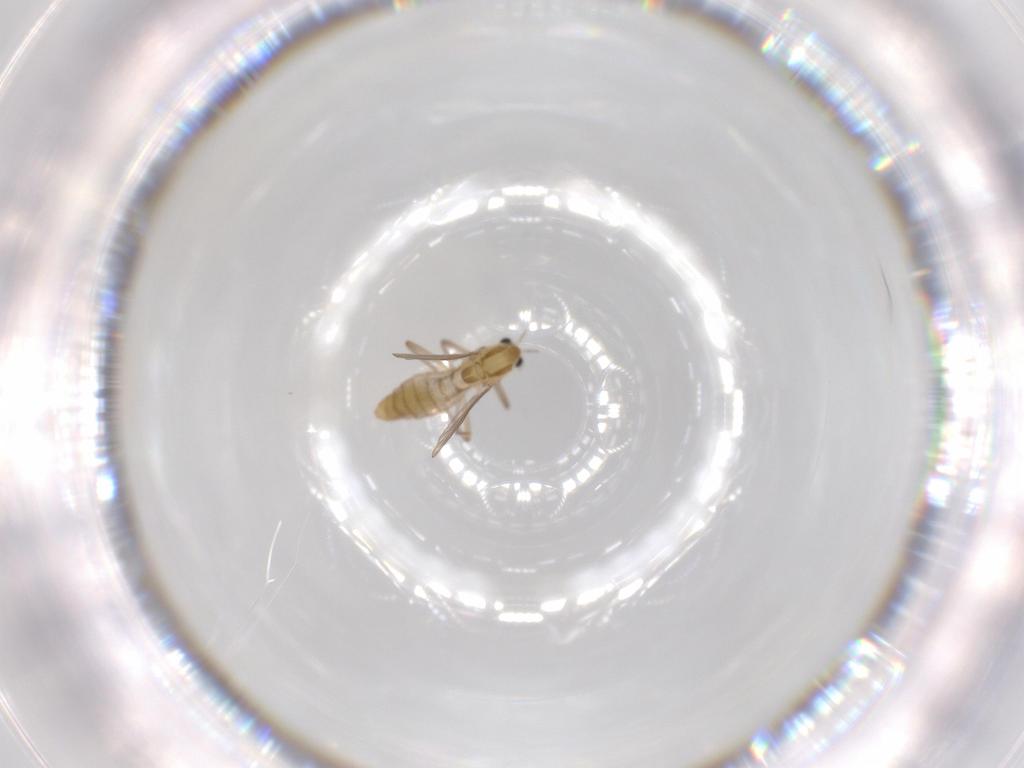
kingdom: Animalia
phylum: Arthropoda
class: Insecta
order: Diptera
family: Chironomidae
